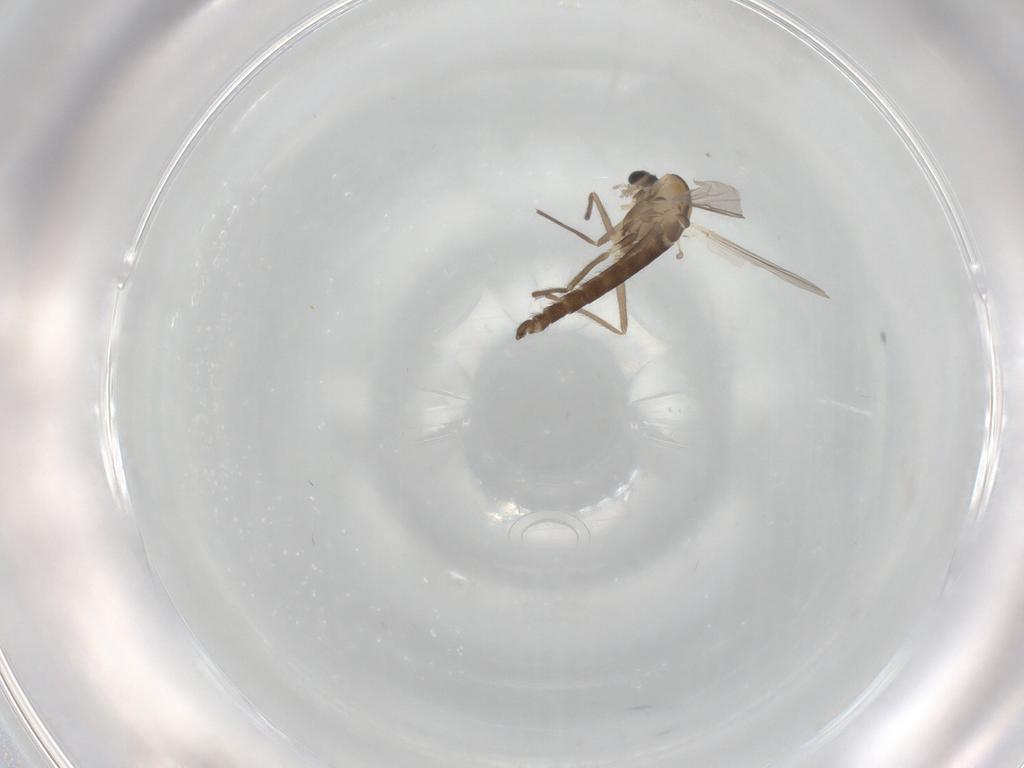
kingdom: Animalia
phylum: Arthropoda
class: Insecta
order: Diptera
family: Chironomidae
